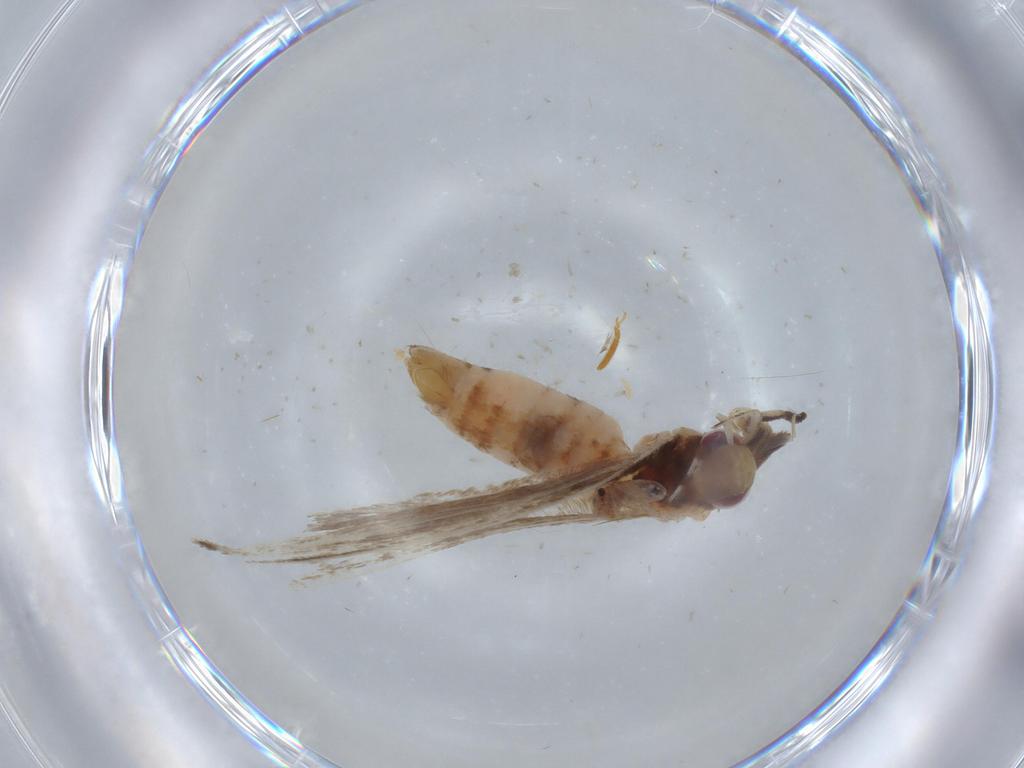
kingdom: Animalia
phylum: Arthropoda
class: Insecta
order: Lepidoptera
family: Gelechiidae
